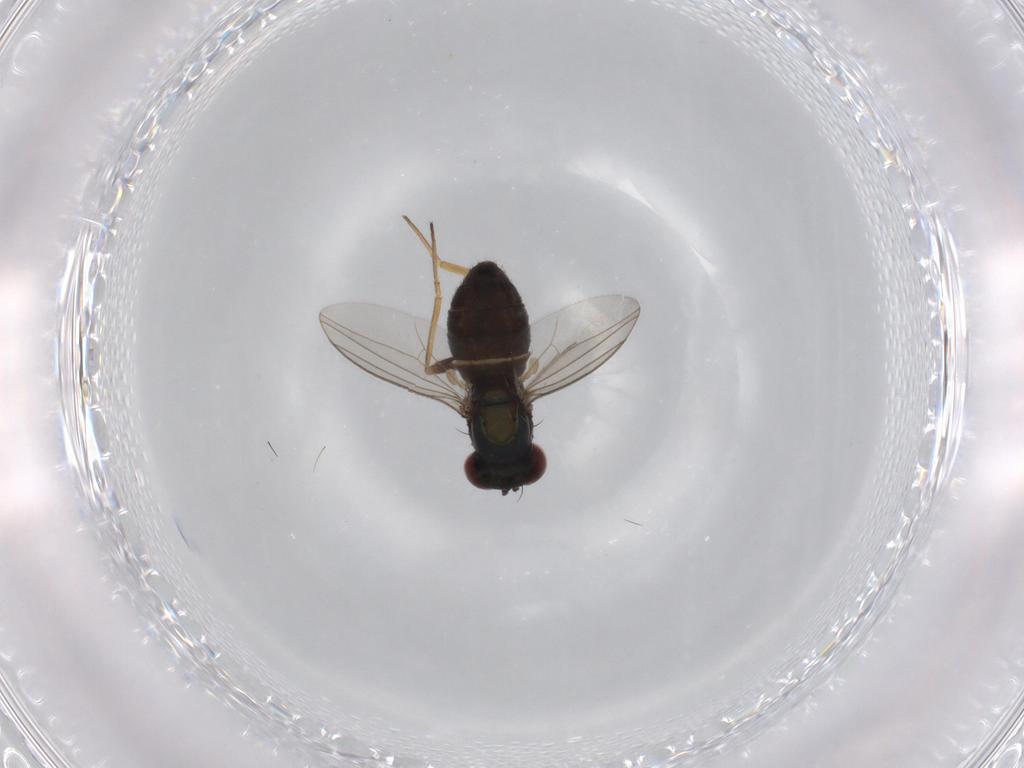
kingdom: Animalia
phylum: Arthropoda
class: Insecta
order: Diptera
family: Dolichopodidae
